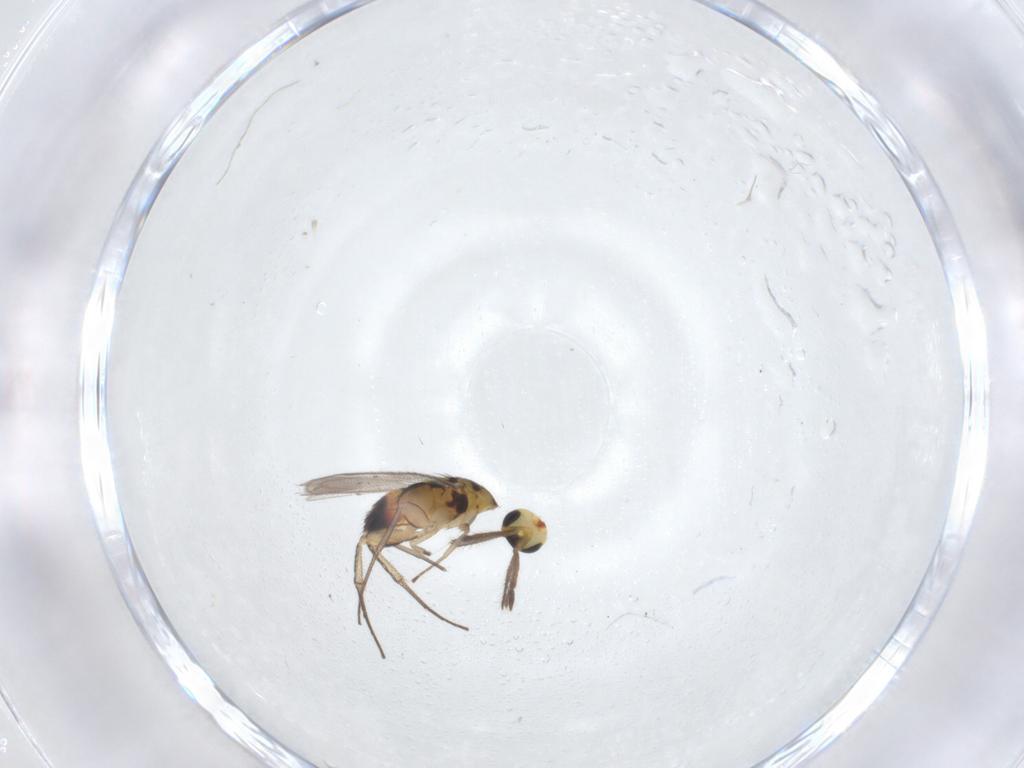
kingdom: Animalia
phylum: Arthropoda
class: Insecta
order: Hymenoptera
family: Eulophidae
